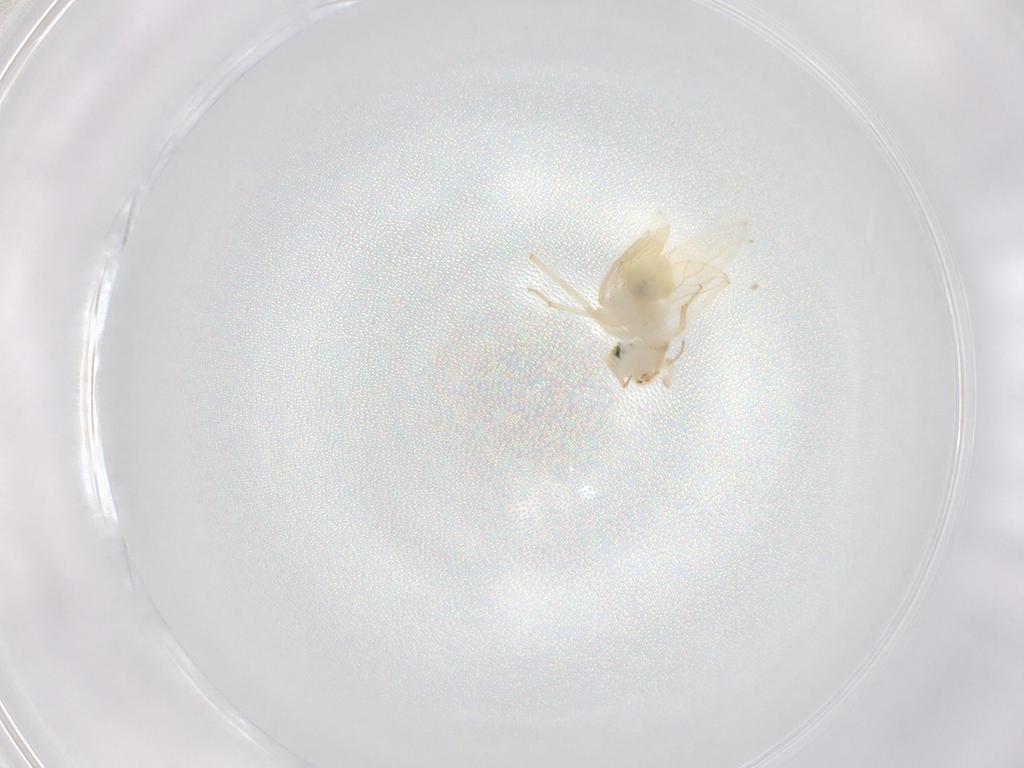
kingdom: Animalia
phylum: Arthropoda
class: Insecta
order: Psocodea
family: Lepidopsocidae
